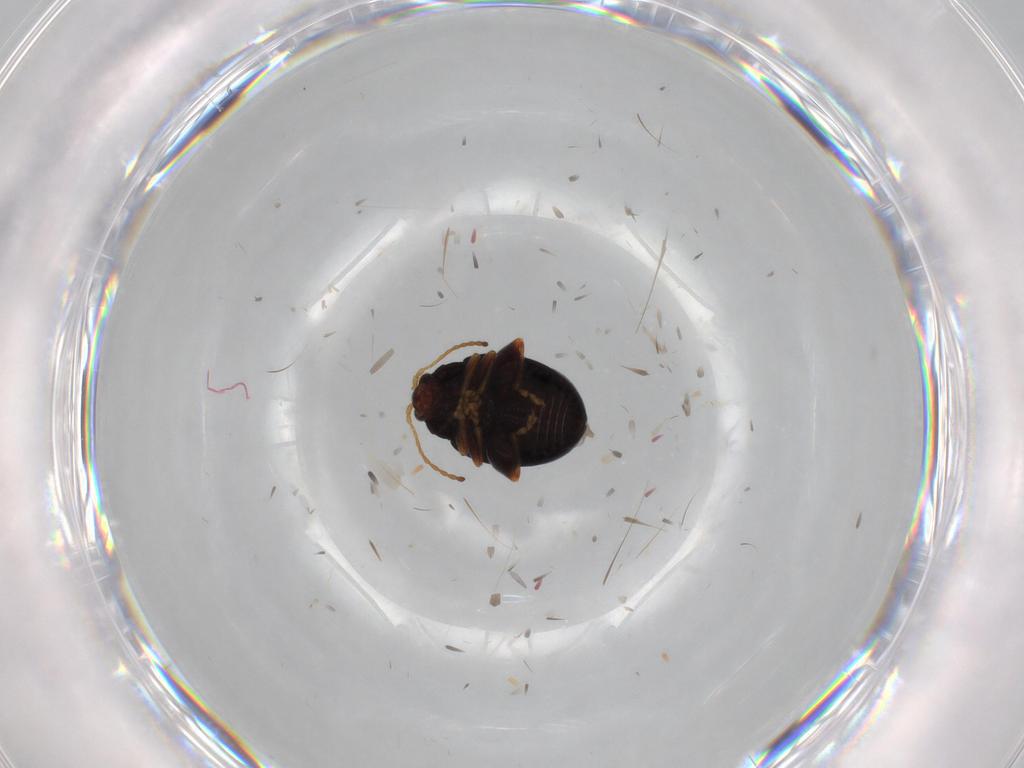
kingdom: Animalia
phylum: Arthropoda
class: Insecta
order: Coleoptera
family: Chrysomelidae
